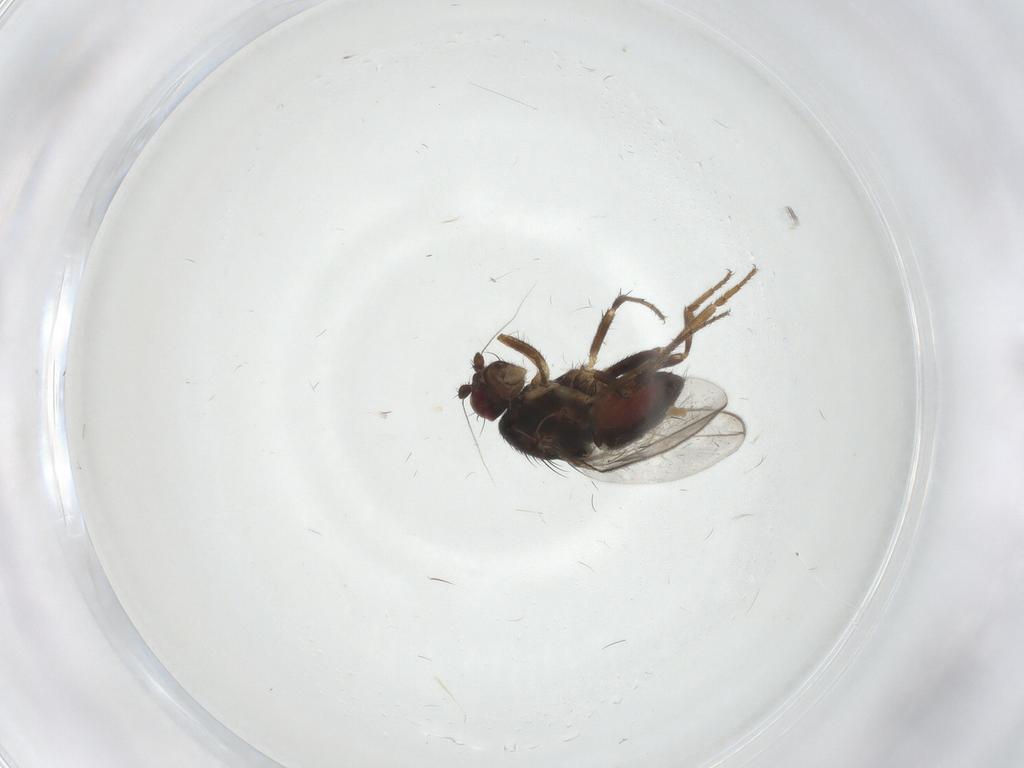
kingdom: Animalia
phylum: Arthropoda
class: Insecta
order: Diptera
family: Sphaeroceridae
